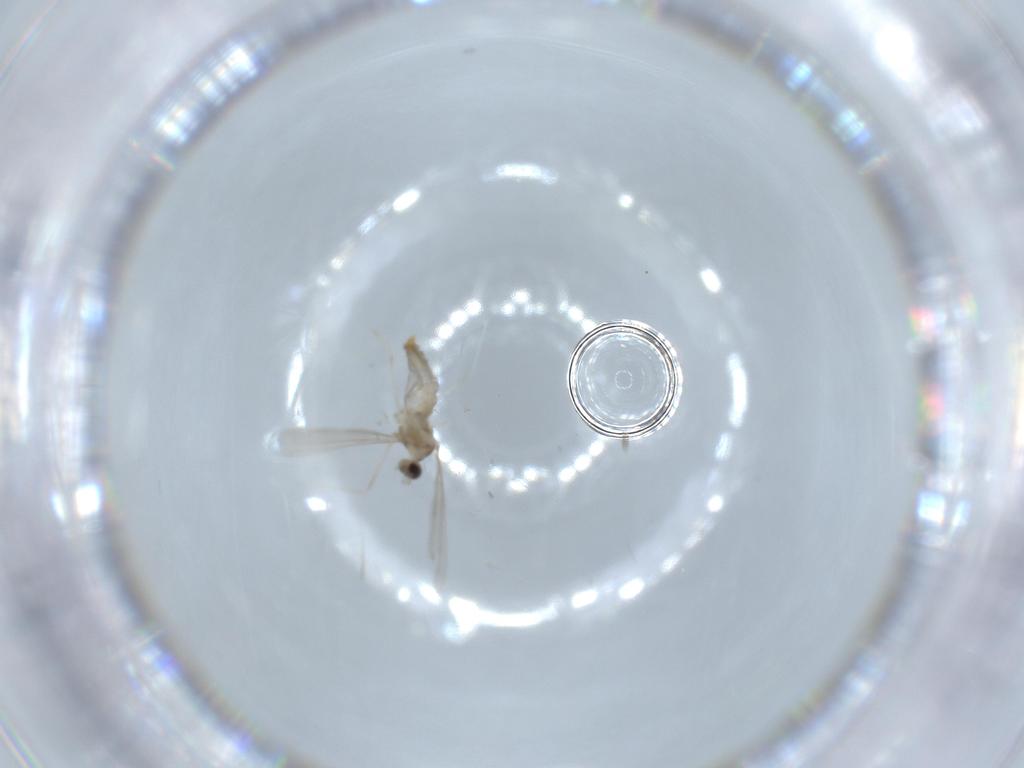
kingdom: Animalia
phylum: Arthropoda
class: Insecta
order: Diptera
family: Cecidomyiidae
